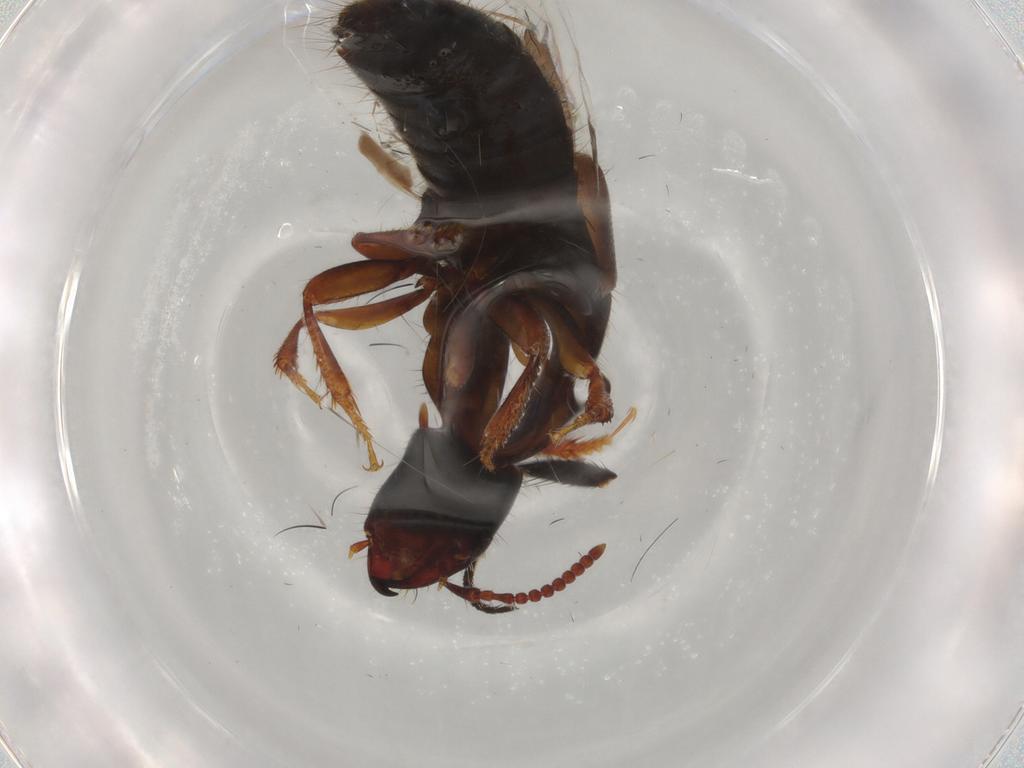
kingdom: Animalia
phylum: Arthropoda
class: Insecta
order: Coleoptera
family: Staphylinidae
